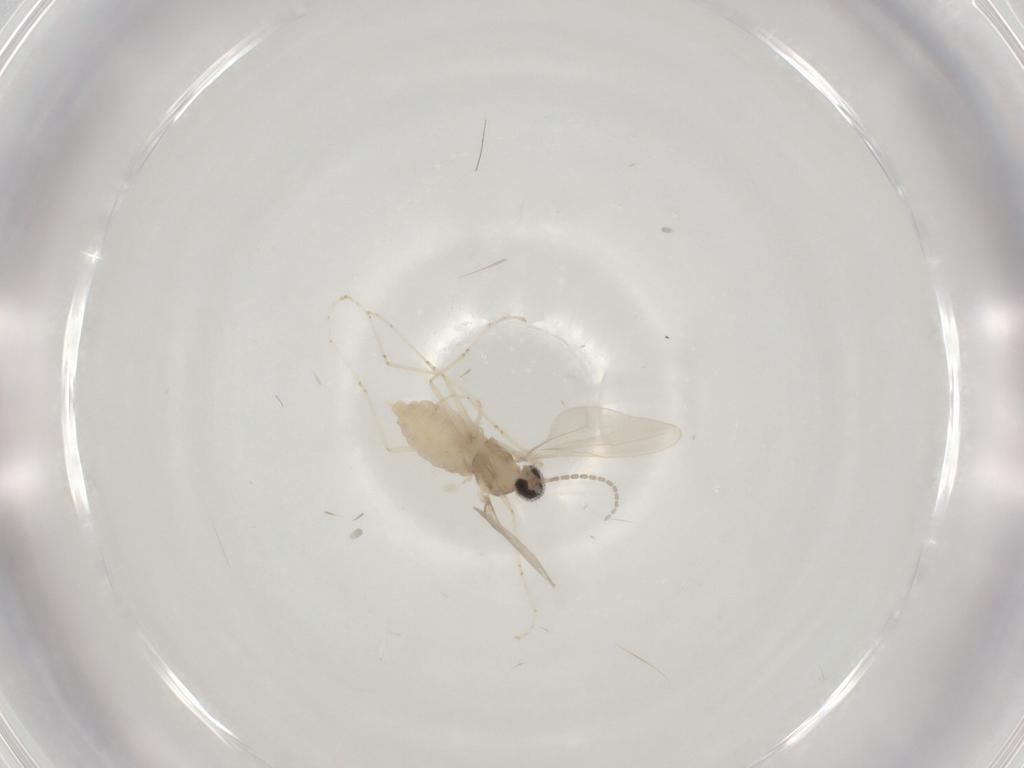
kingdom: Animalia
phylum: Arthropoda
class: Insecta
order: Diptera
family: Cecidomyiidae
